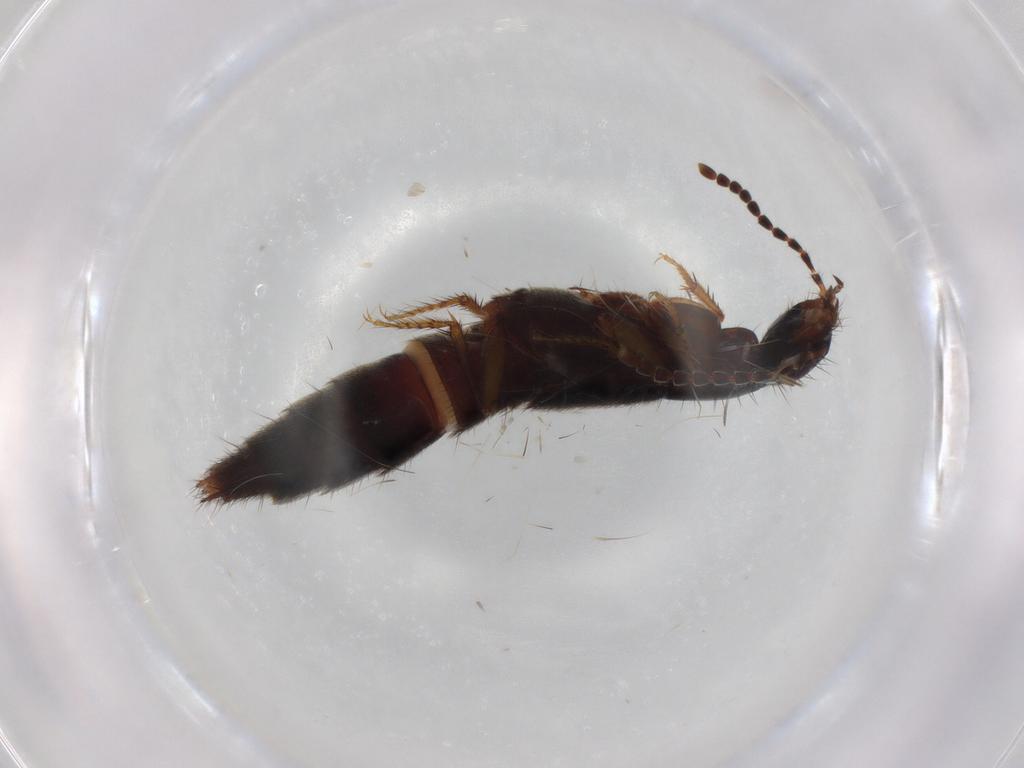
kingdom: Animalia
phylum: Arthropoda
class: Insecta
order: Coleoptera
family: Staphylinidae
